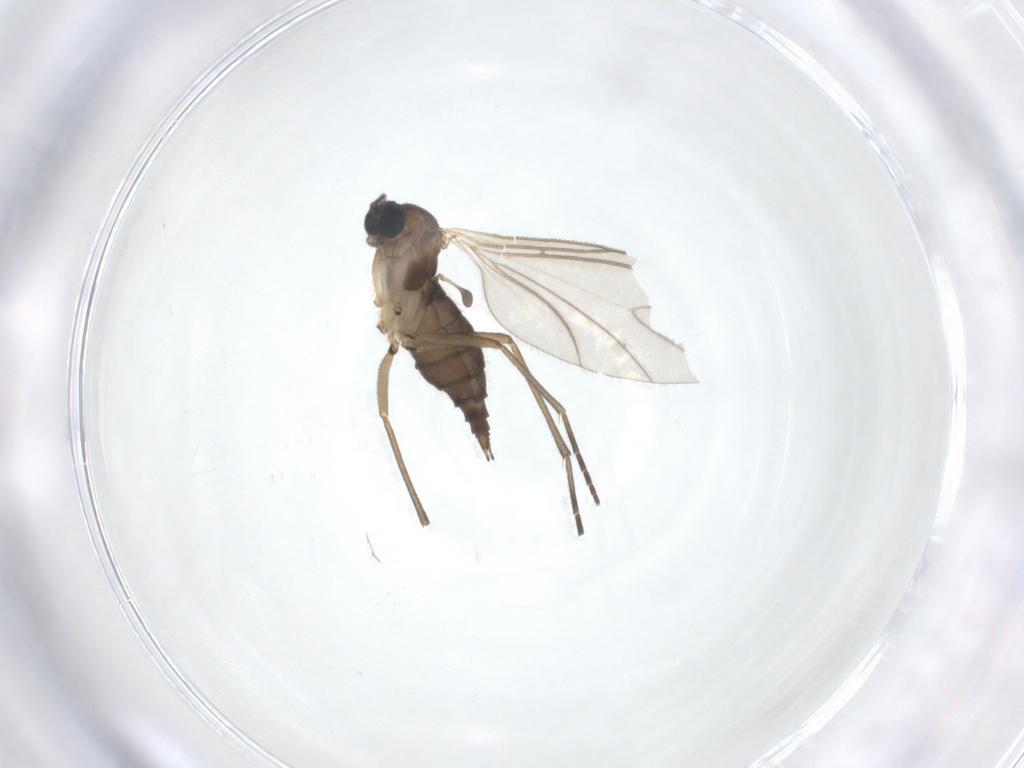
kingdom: Animalia
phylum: Arthropoda
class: Insecta
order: Diptera
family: Sciaridae
